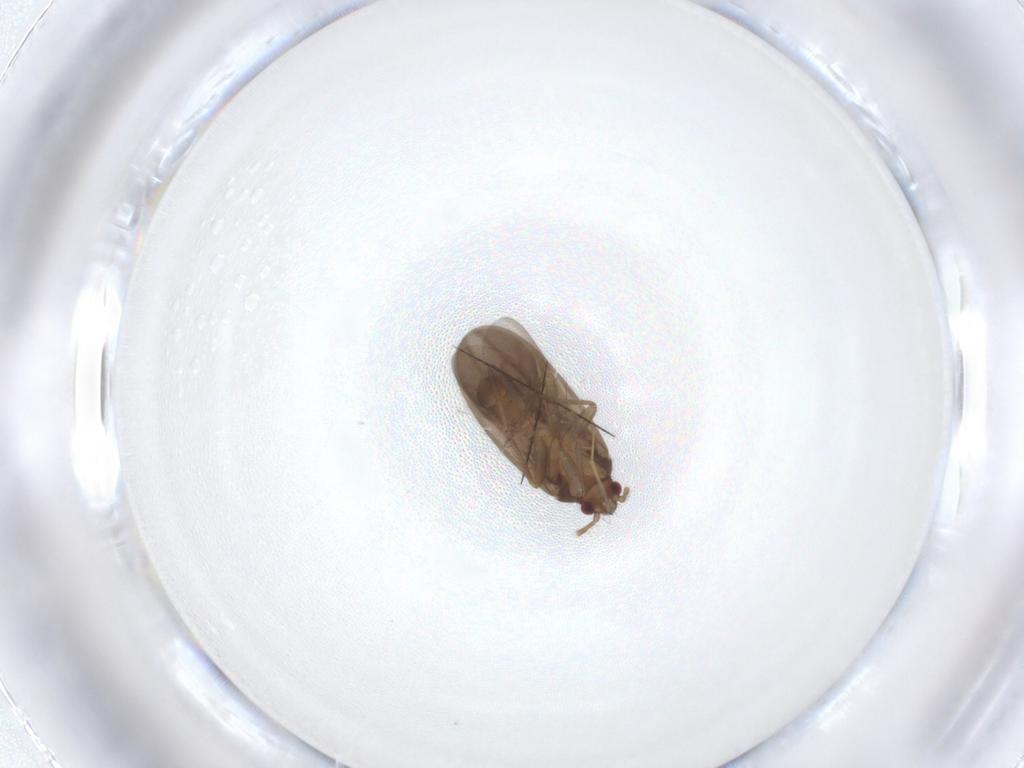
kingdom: Animalia
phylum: Arthropoda
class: Insecta
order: Hemiptera
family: Ceratocombidae
